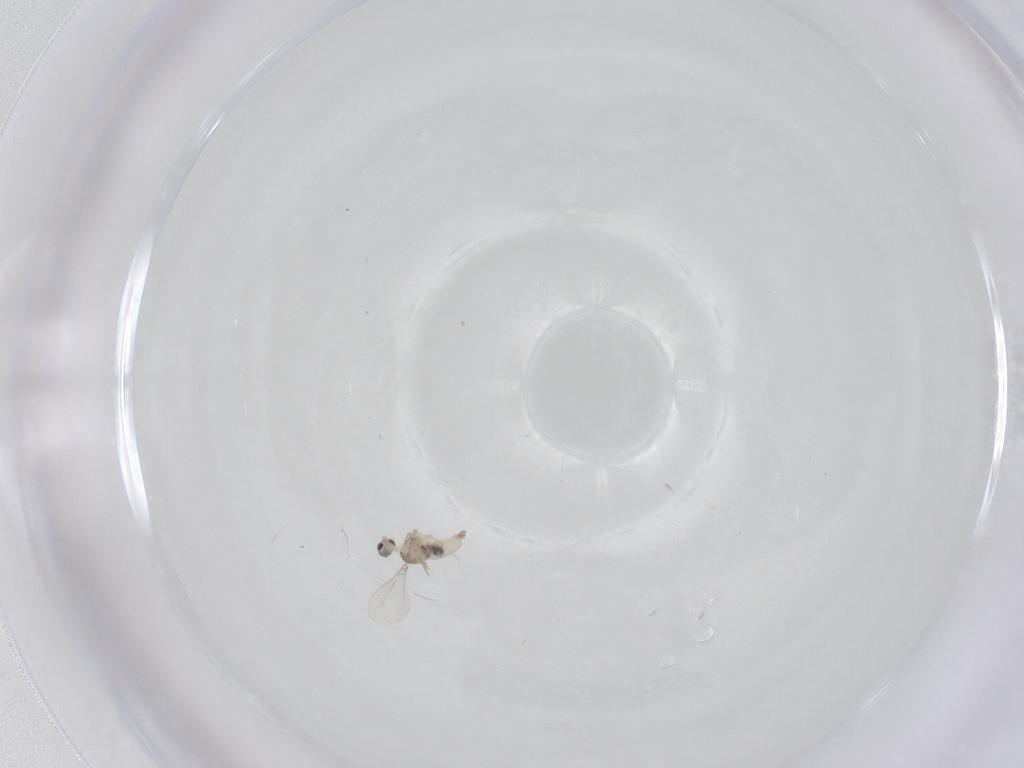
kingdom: Animalia
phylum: Arthropoda
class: Insecta
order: Diptera
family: Cecidomyiidae
